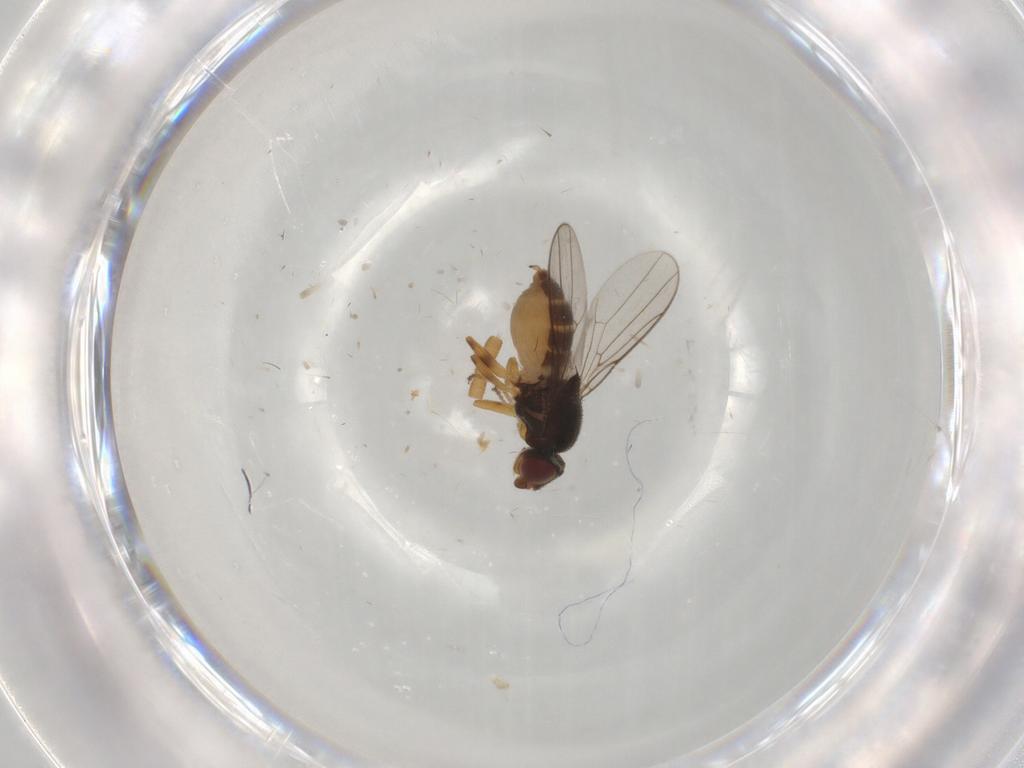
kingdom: Animalia
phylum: Arthropoda
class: Insecta
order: Diptera
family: Chloropidae
